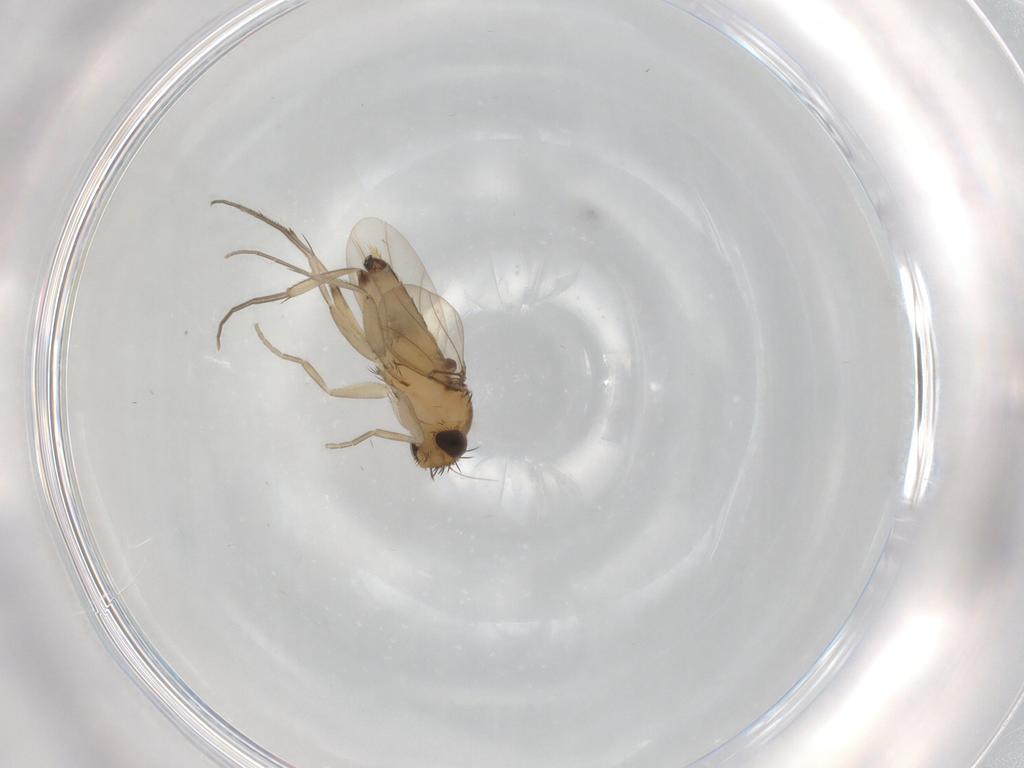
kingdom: Animalia
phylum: Arthropoda
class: Insecta
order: Diptera
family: Phoridae
